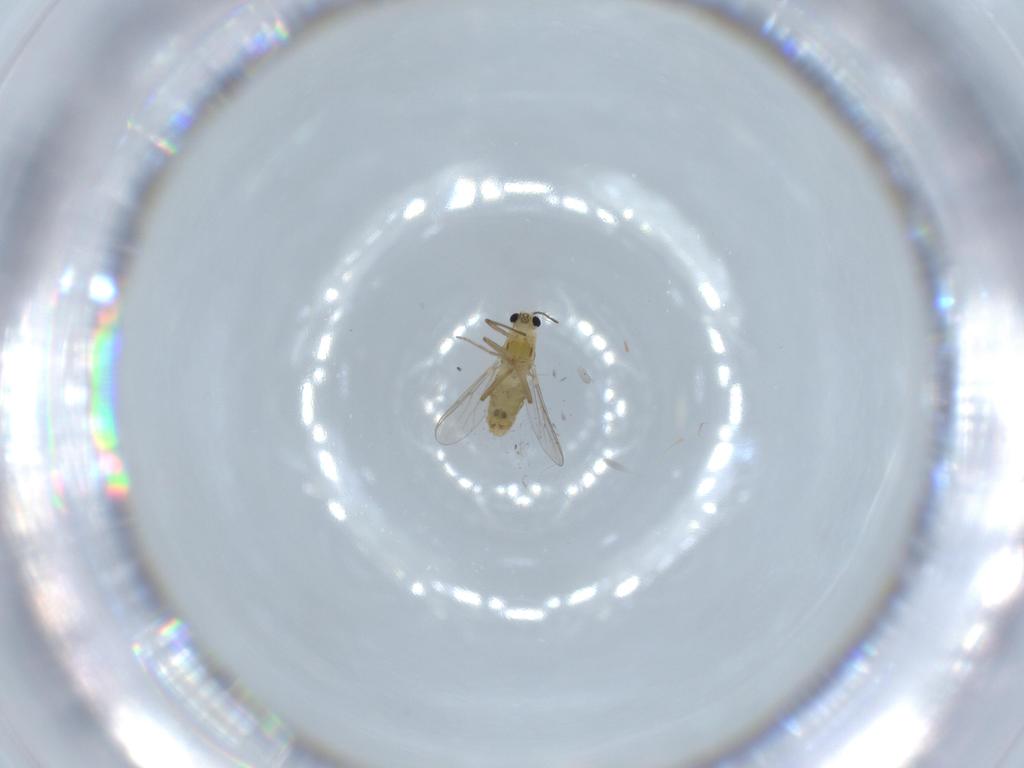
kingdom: Animalia
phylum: Arthropoda
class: Insecta
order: Diptera
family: Chironomidae
